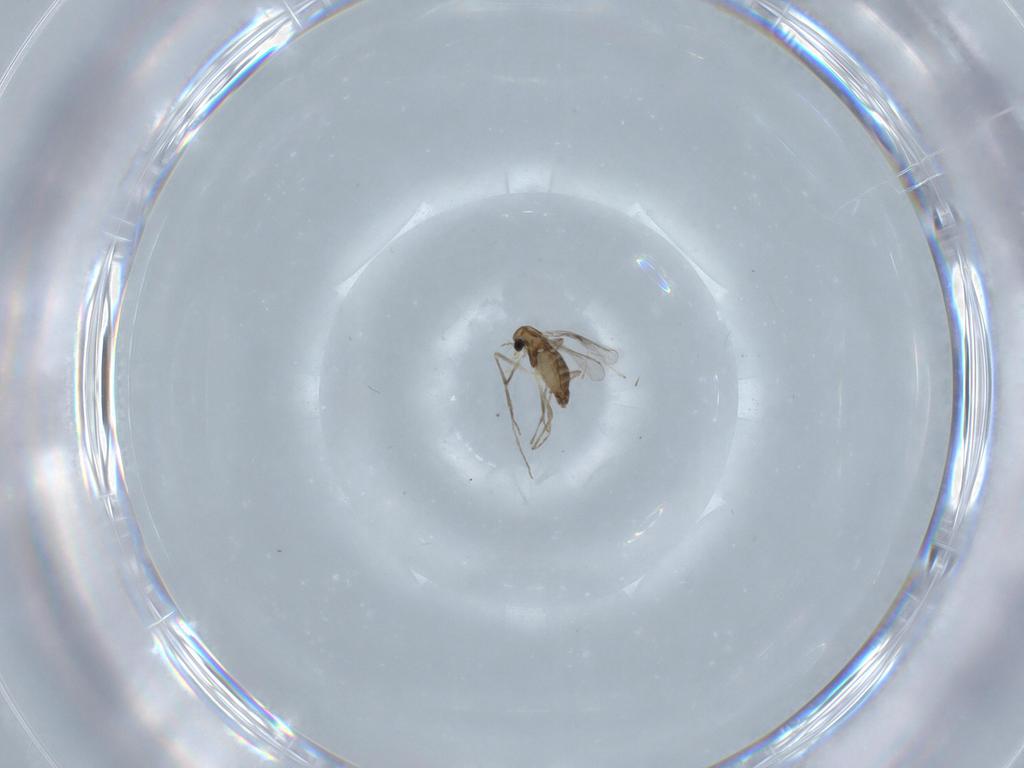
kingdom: Animalia
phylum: Arthropoda
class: Insecta
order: Diptera
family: Chironomidae
